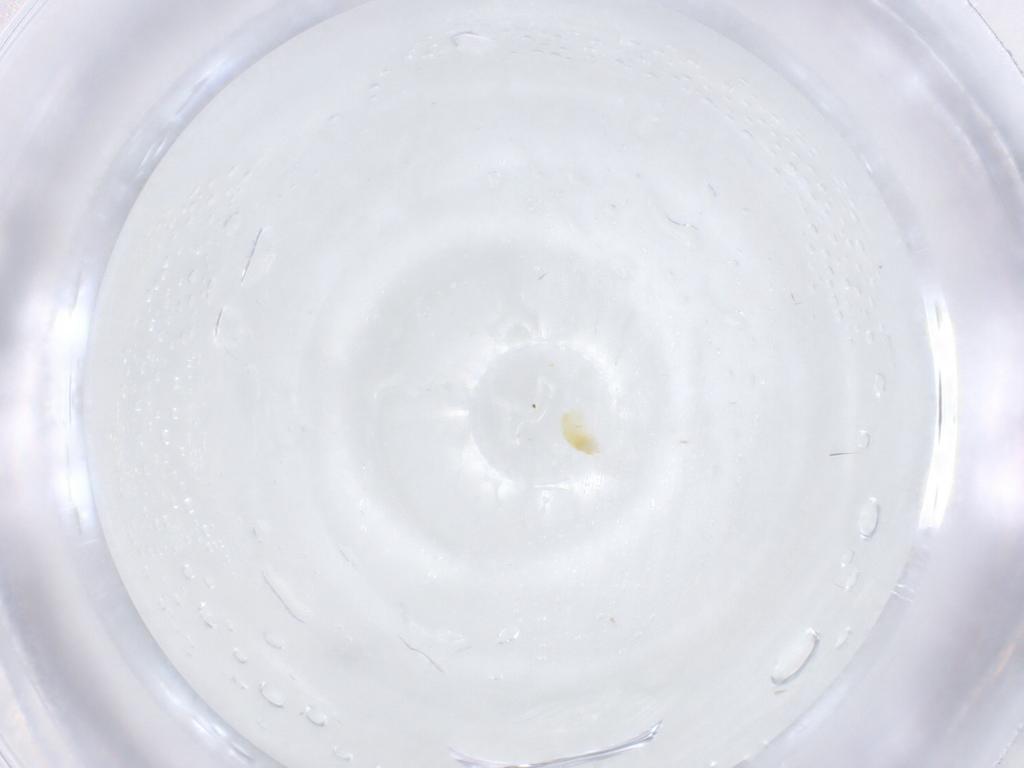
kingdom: Animalia
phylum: Arthropoda
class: Arachnida
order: Trombidiformes
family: Eupodidae
